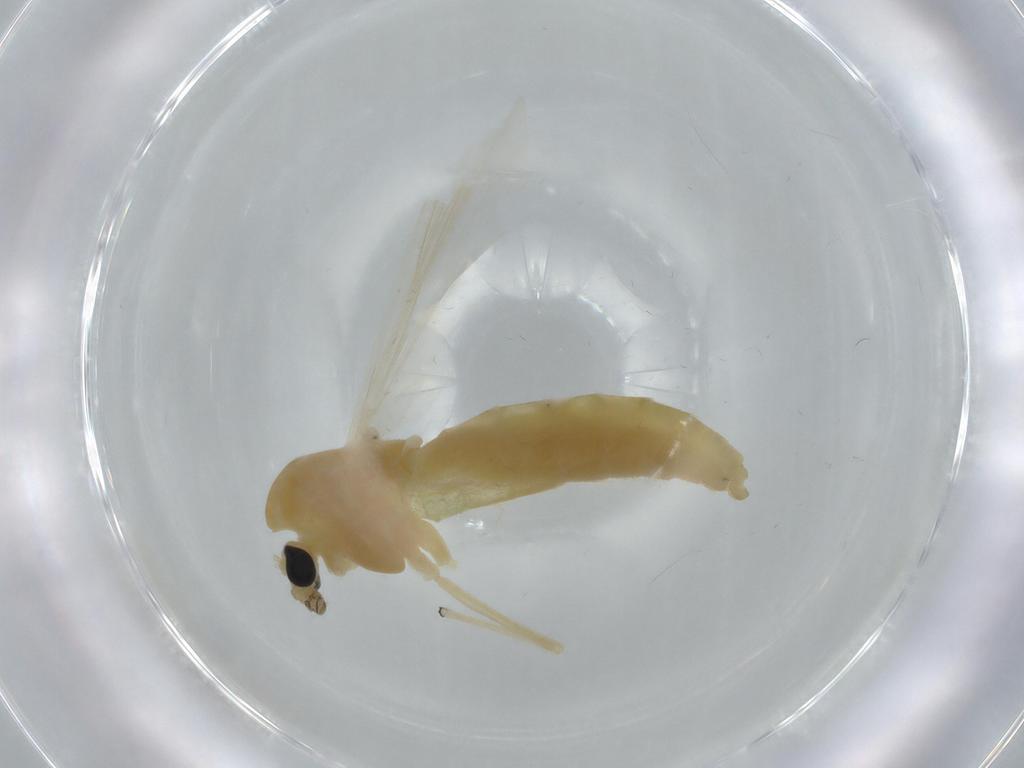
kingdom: Animalia
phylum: Arthropoda
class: Insecta
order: Diptera
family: Chironomidae
